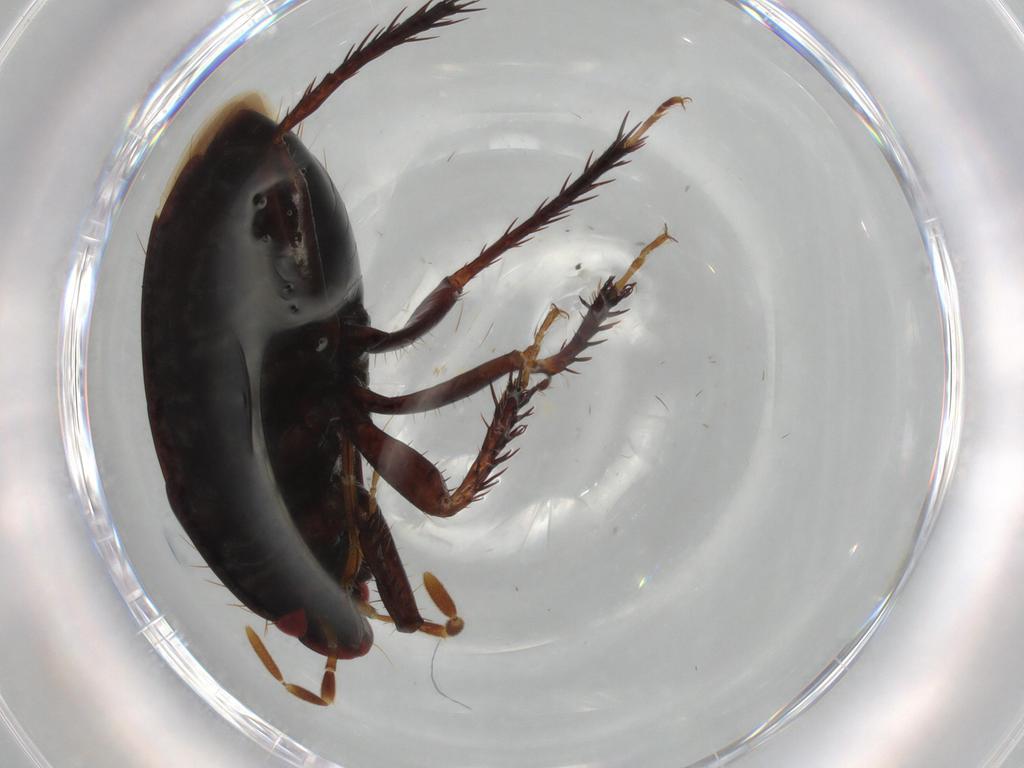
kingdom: Animalia
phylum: Arthropoda
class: Insecta
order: Hemiptera
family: Cydnidae
